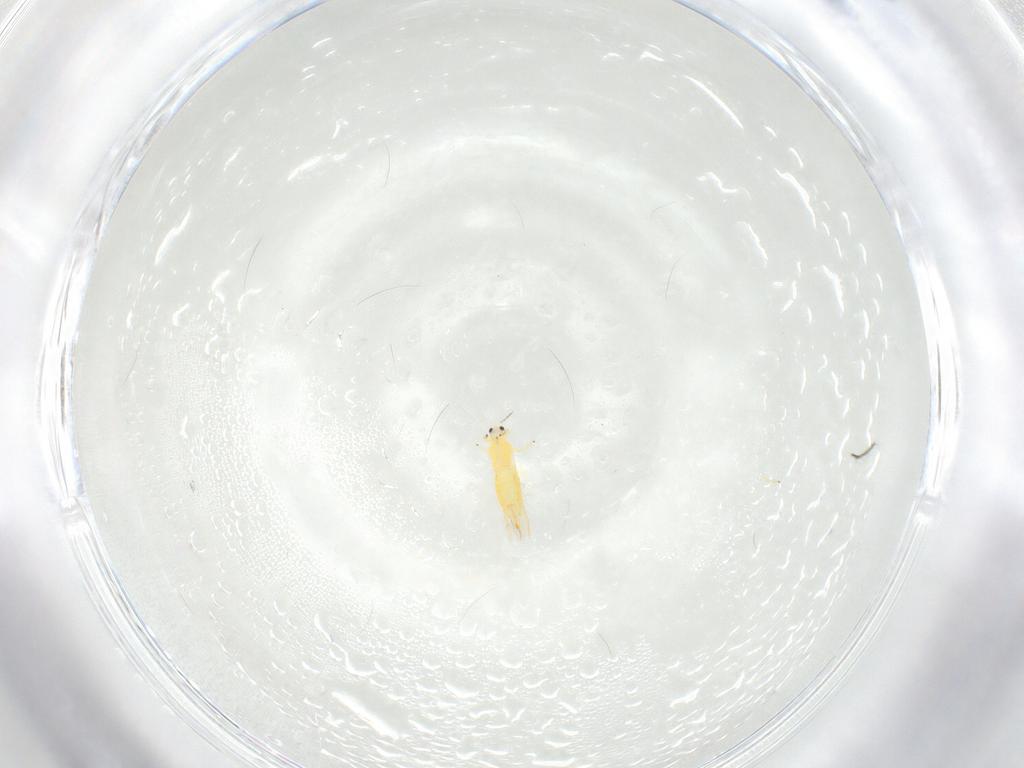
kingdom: Animalia
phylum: Arthropoda
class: Insecta
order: Thysanoptera
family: Thripidae
